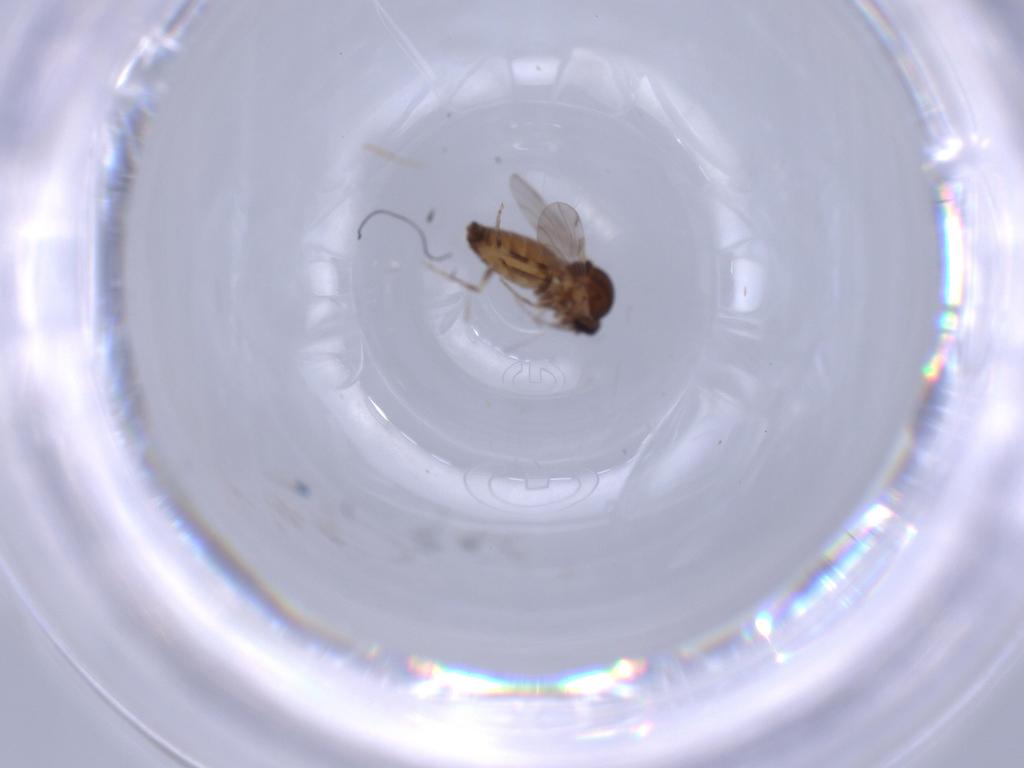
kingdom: Animalia
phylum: Arthropoda
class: Insecta
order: Diptera
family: Ceratopogonidae
